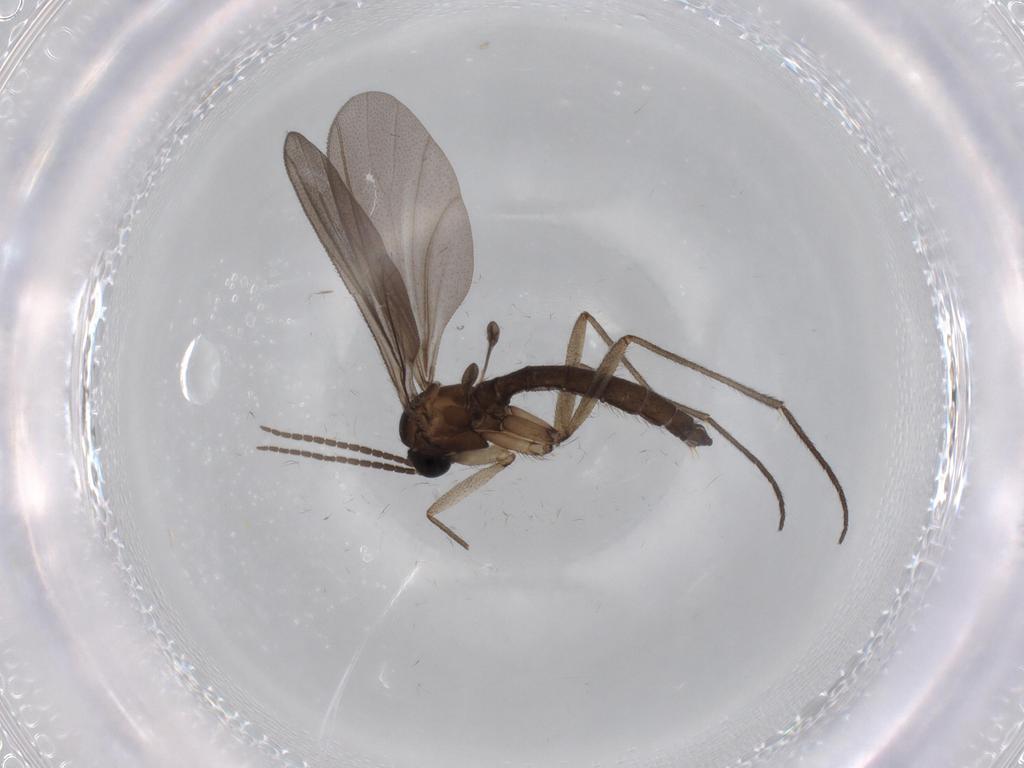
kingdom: Animalia
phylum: Arthropoda
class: Insecta
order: Diptera
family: Sciaridae
